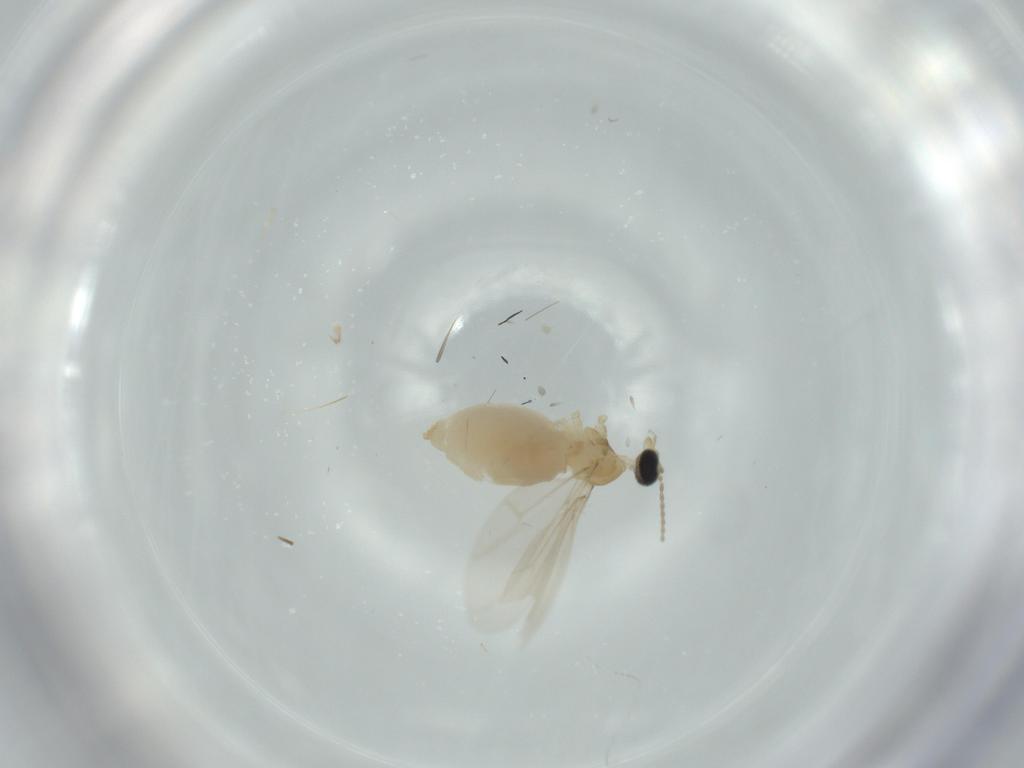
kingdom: Animalia
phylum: Arthropoda
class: Insecta
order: Diptera
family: Cecidomyiidae
